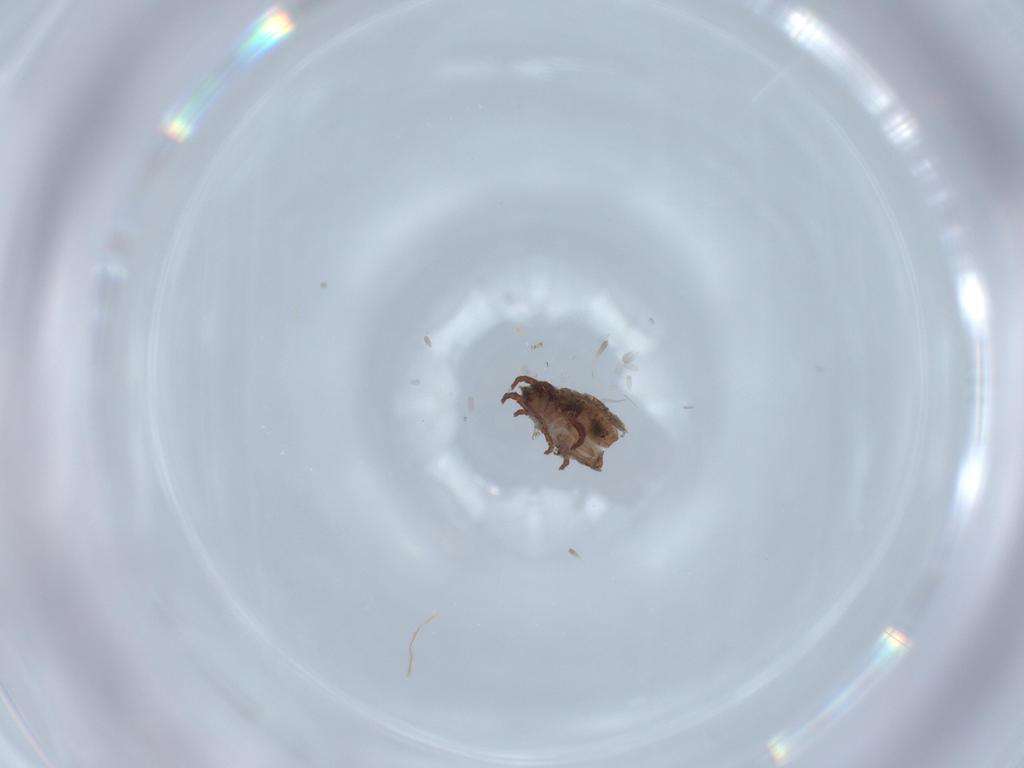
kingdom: Animalia
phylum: Arthropoda
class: Arachnida
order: Sarcoptiformes
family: Crotoniidae
